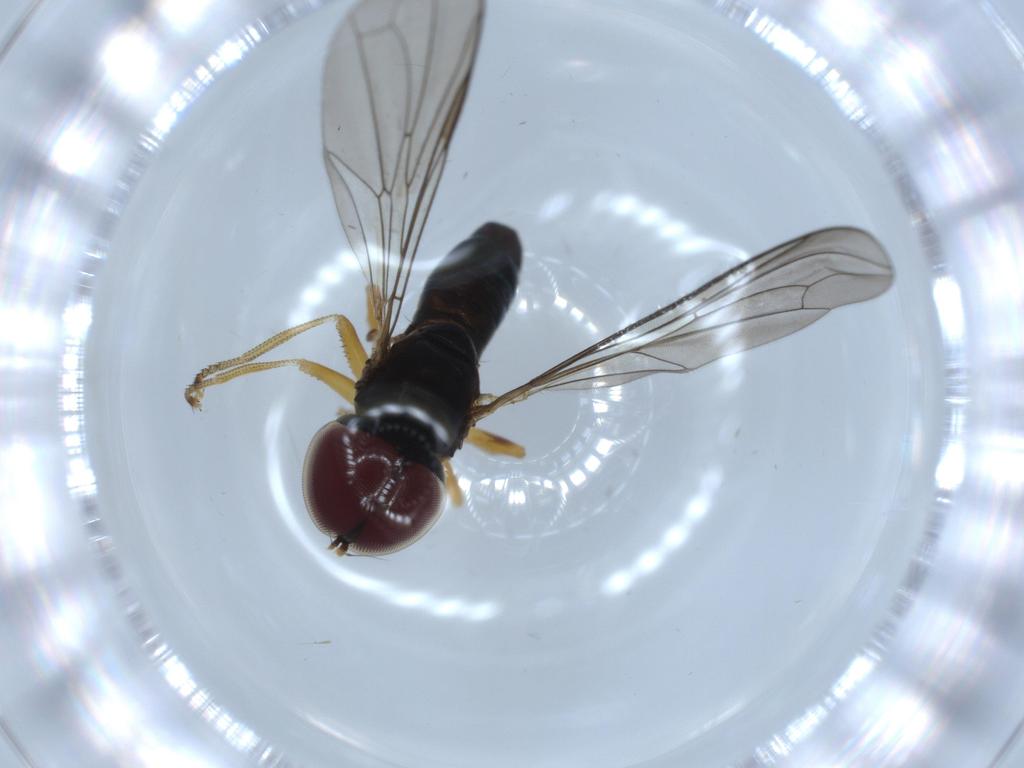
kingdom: Animalia
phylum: Arthropoda
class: Insecta
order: Diptera
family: Pipunculidae
